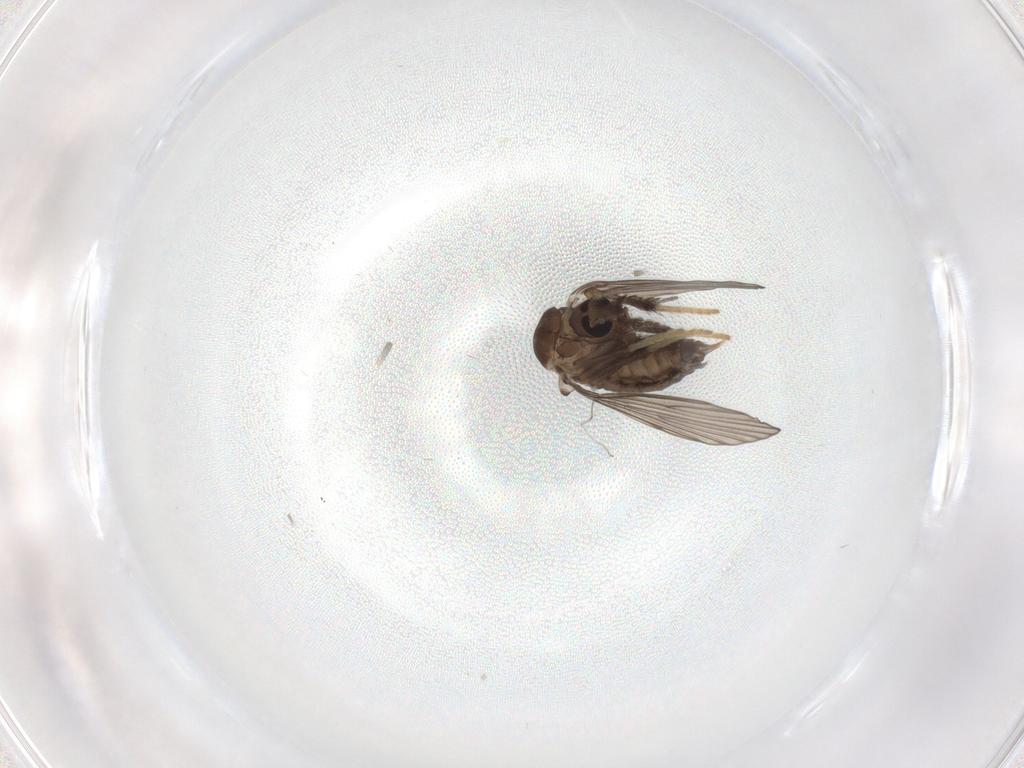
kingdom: Animalia
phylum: Arthropoda
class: Insecta
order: Diptera
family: Psychodidae
